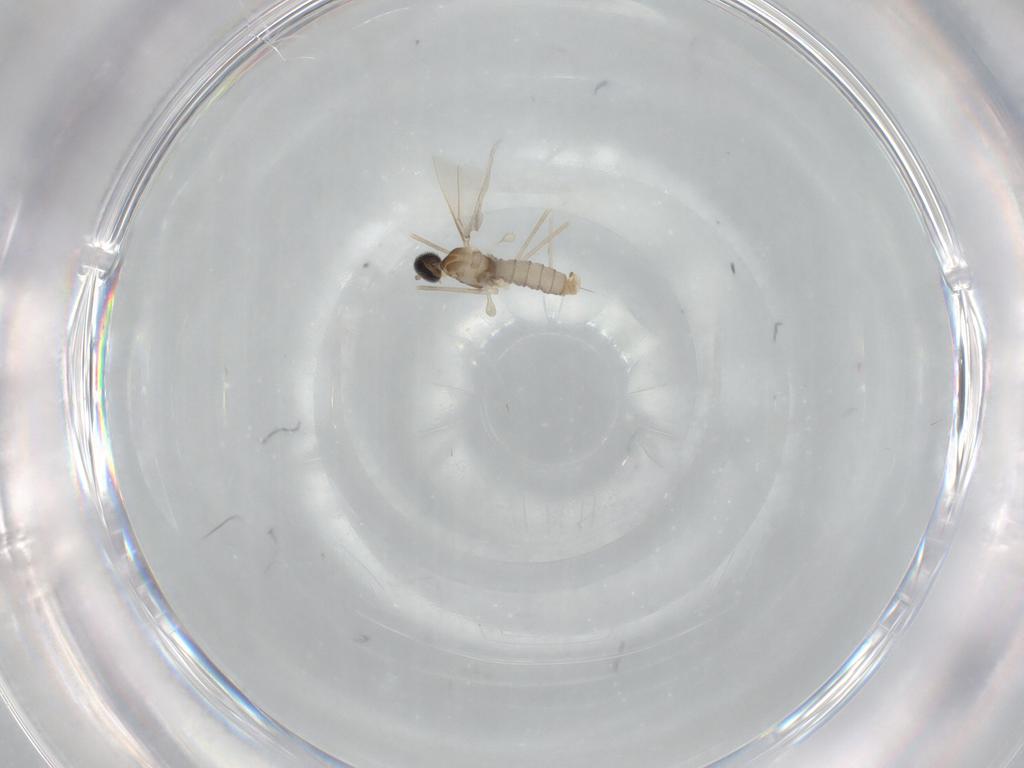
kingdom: Animalia
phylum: Arthropoda
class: Insecta
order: Diptera
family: Cecidomyiidae
